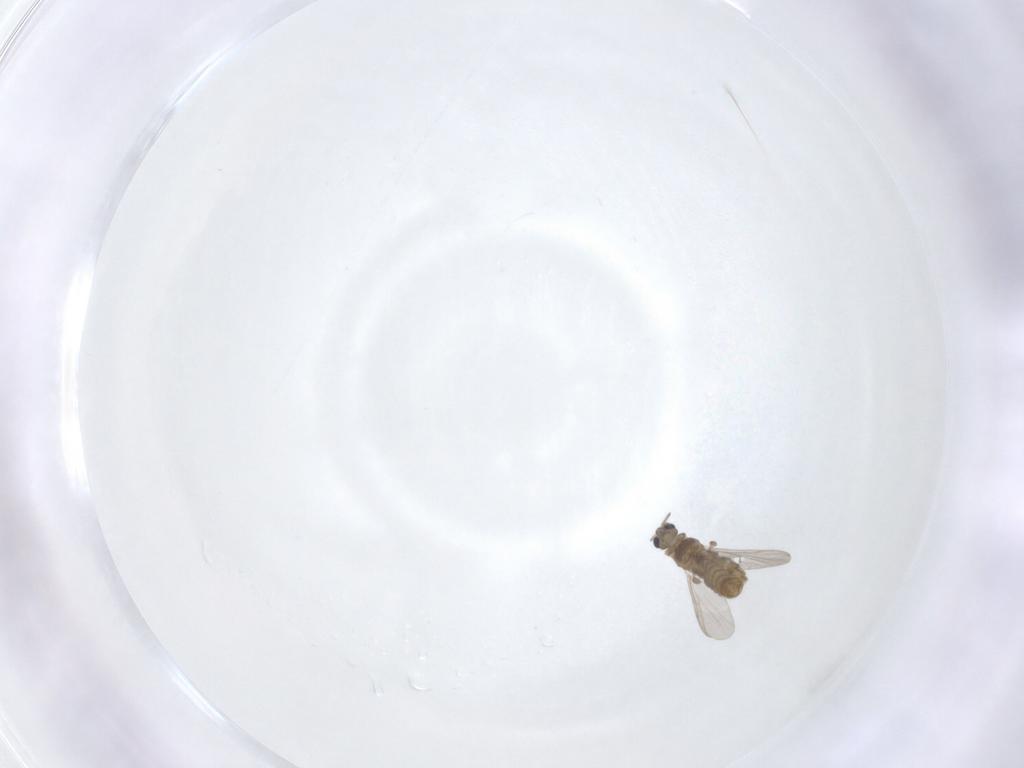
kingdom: Animalia
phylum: Arthropoda
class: Insecta
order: Diptera
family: Chironomidae
